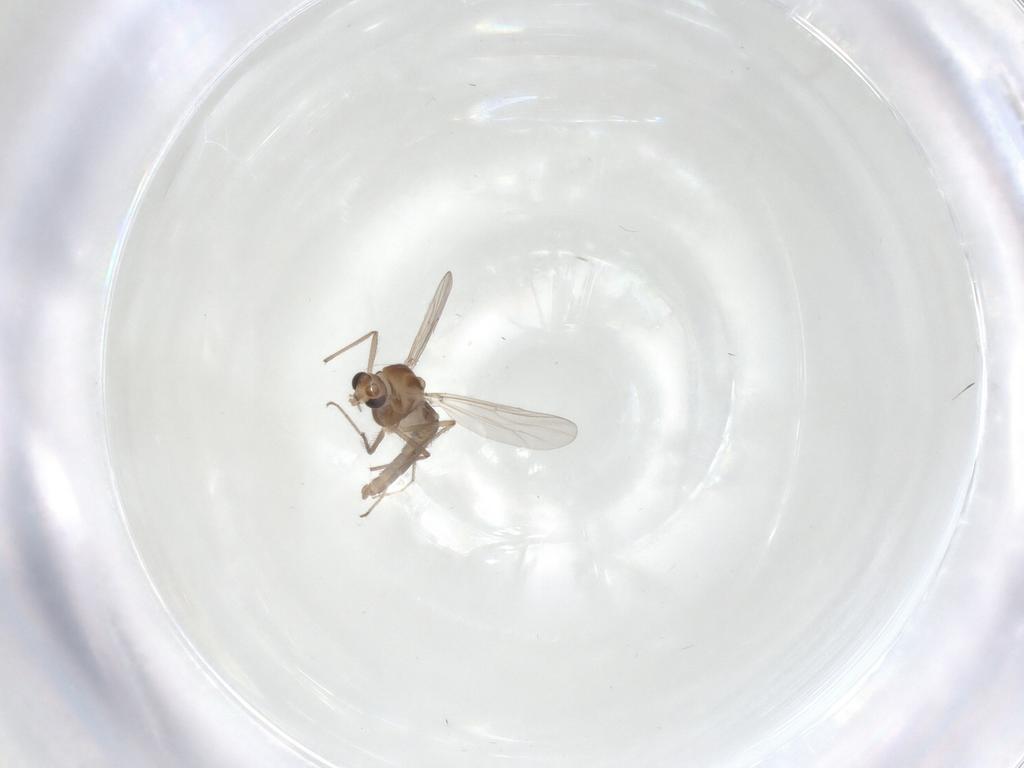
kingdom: Animalia
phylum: Arthropoda
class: Insecta
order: Diptera
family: Chironomidae
